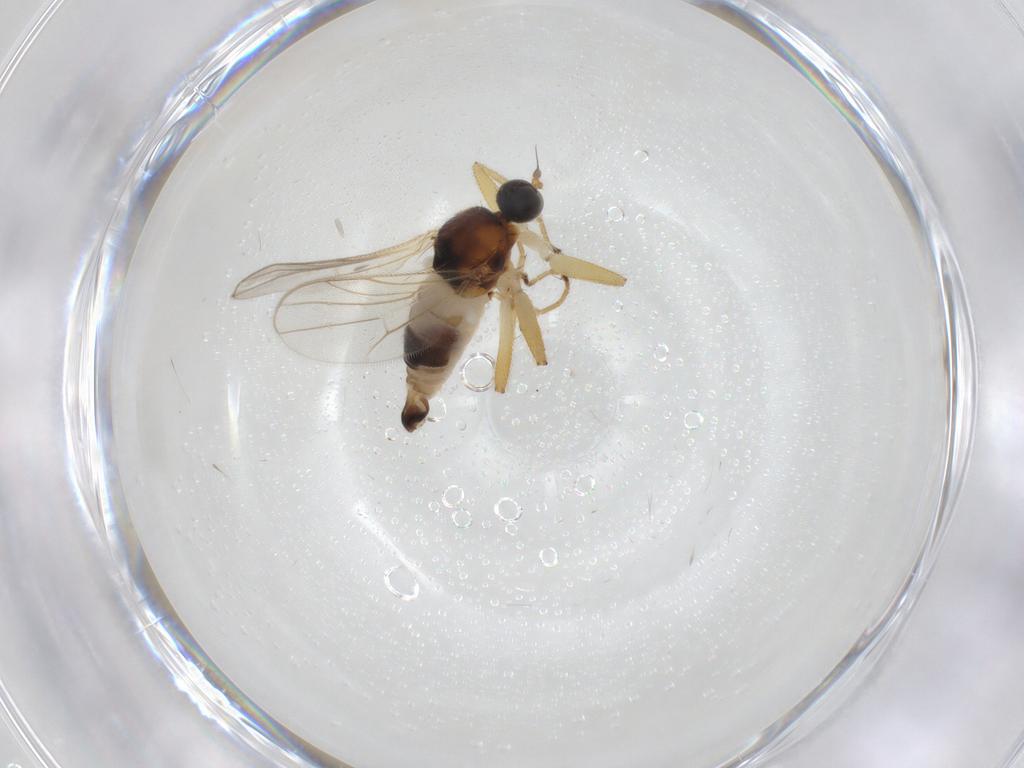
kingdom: Animalia
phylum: Arthropoda
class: Insecta
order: Diptera
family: Hybotidae
